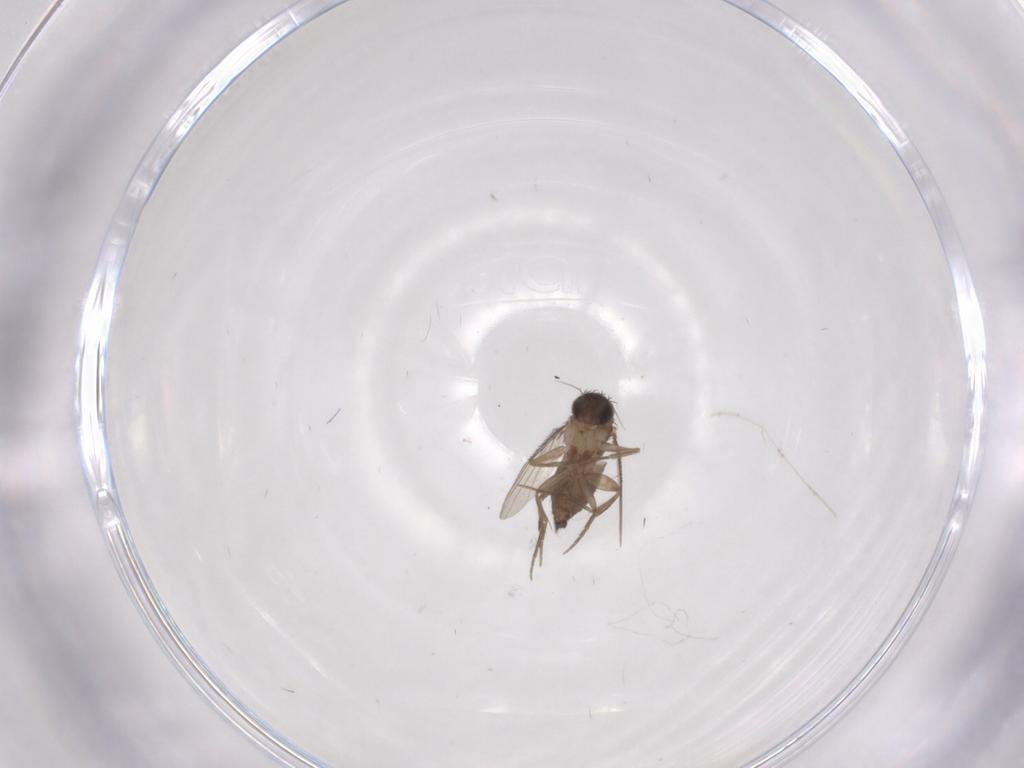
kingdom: Animalia
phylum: Arthropoda
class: Insecta
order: Diptera
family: Phoridae
